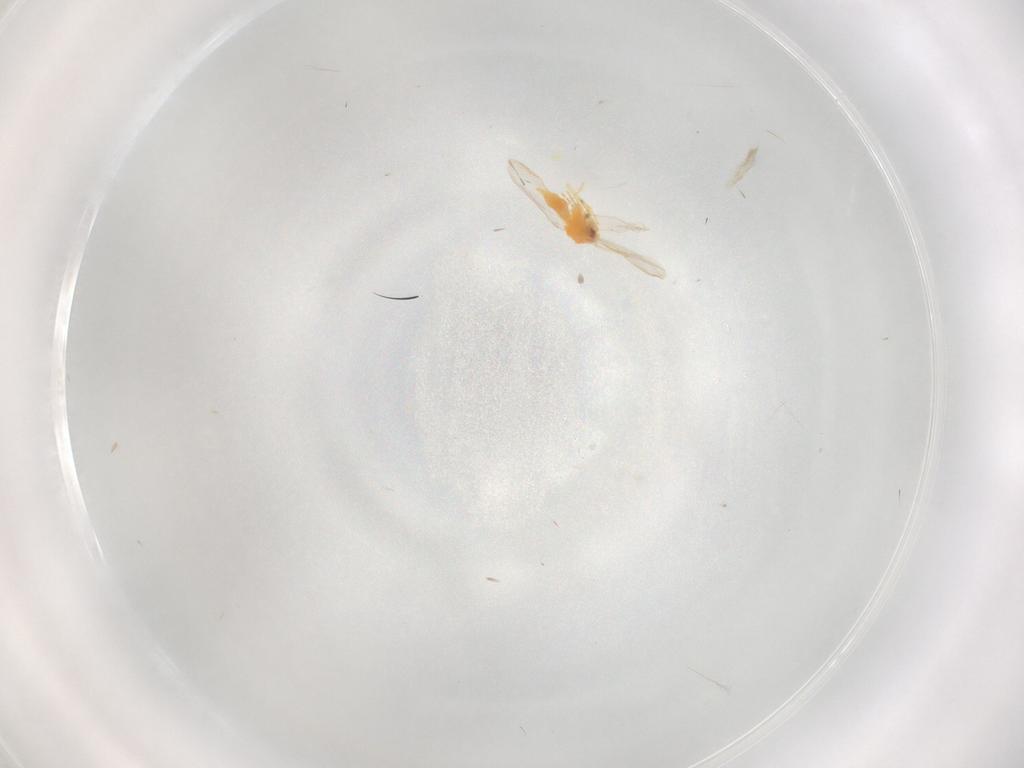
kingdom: Animalia
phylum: Arthropoda
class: Insecta
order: Hemiptera
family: Aleyrodidae
